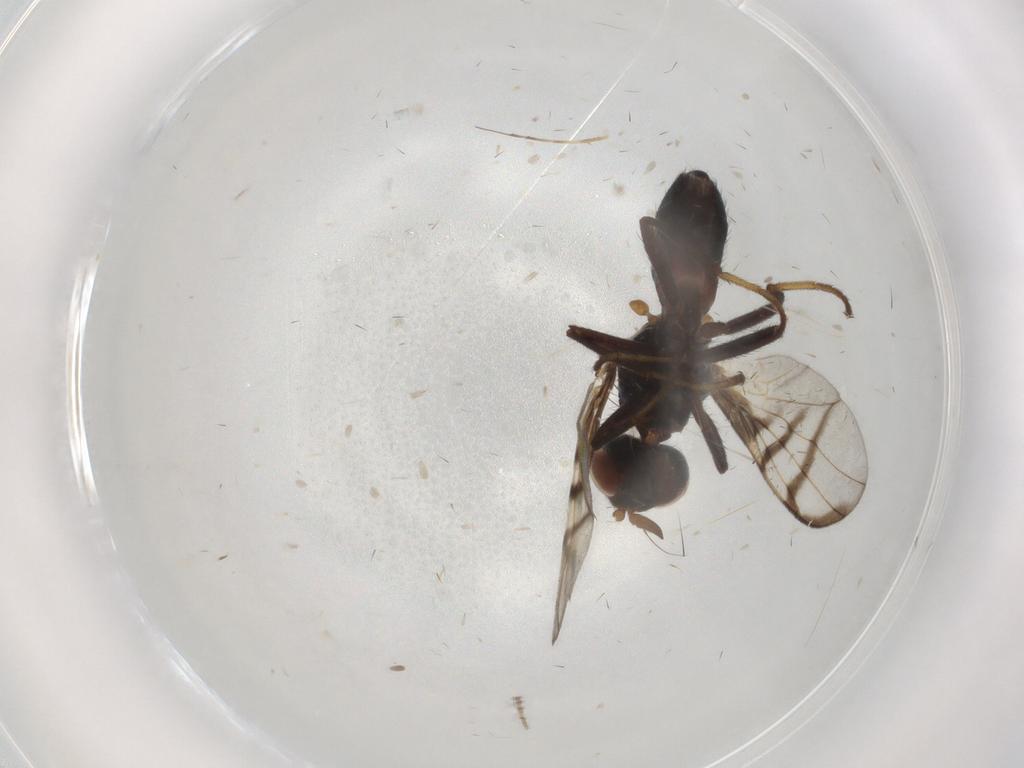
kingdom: Animalia
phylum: Arthropoda
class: Insecta
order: Diptera
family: Platystomatidae
